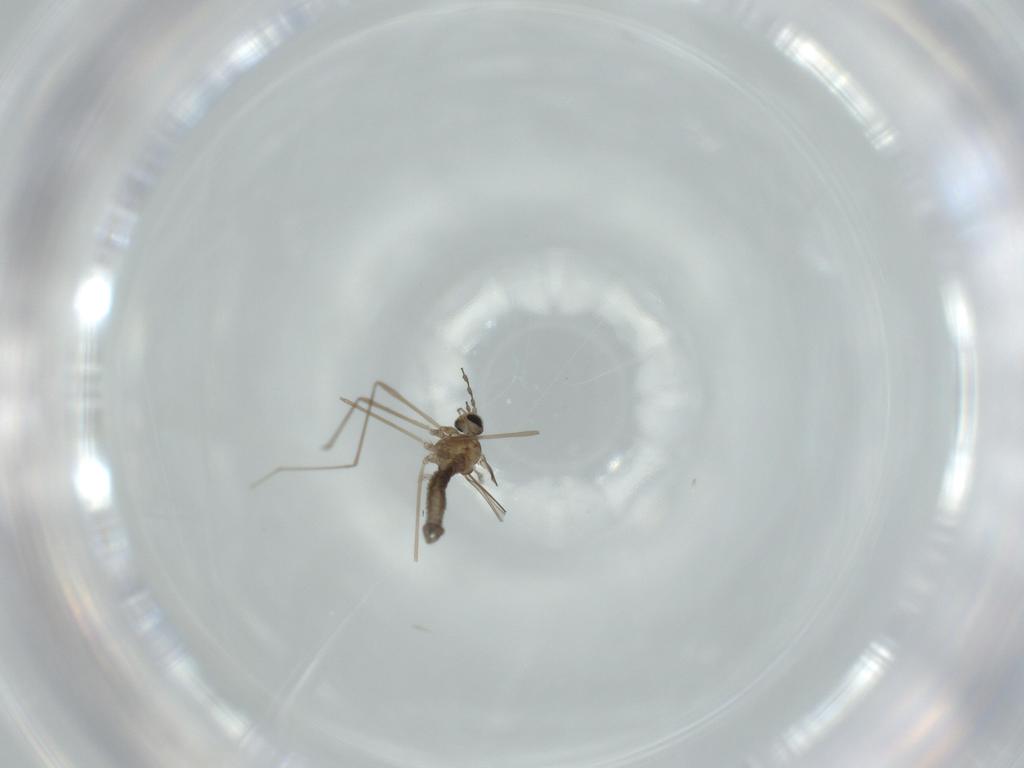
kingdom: Animalia
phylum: Arthropoda
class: Insecta
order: Diptera
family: Cecidomyiidae
